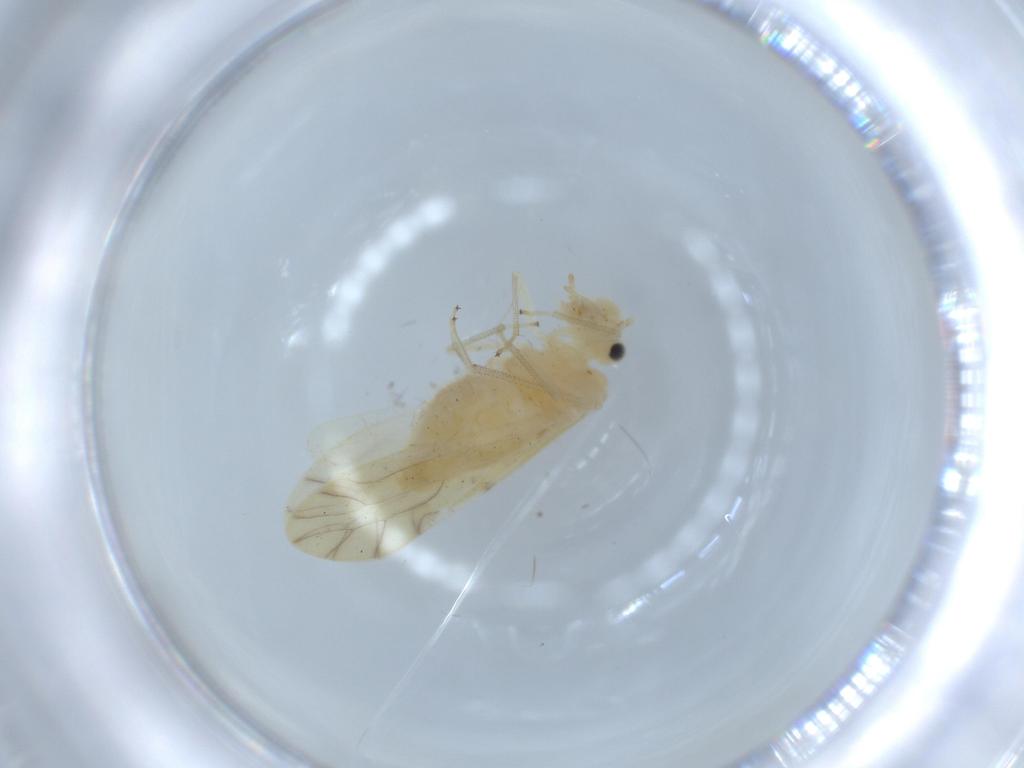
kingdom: Animalia
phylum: Arthropoda
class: Insecta
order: Psocodea
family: Caeciliusidae
